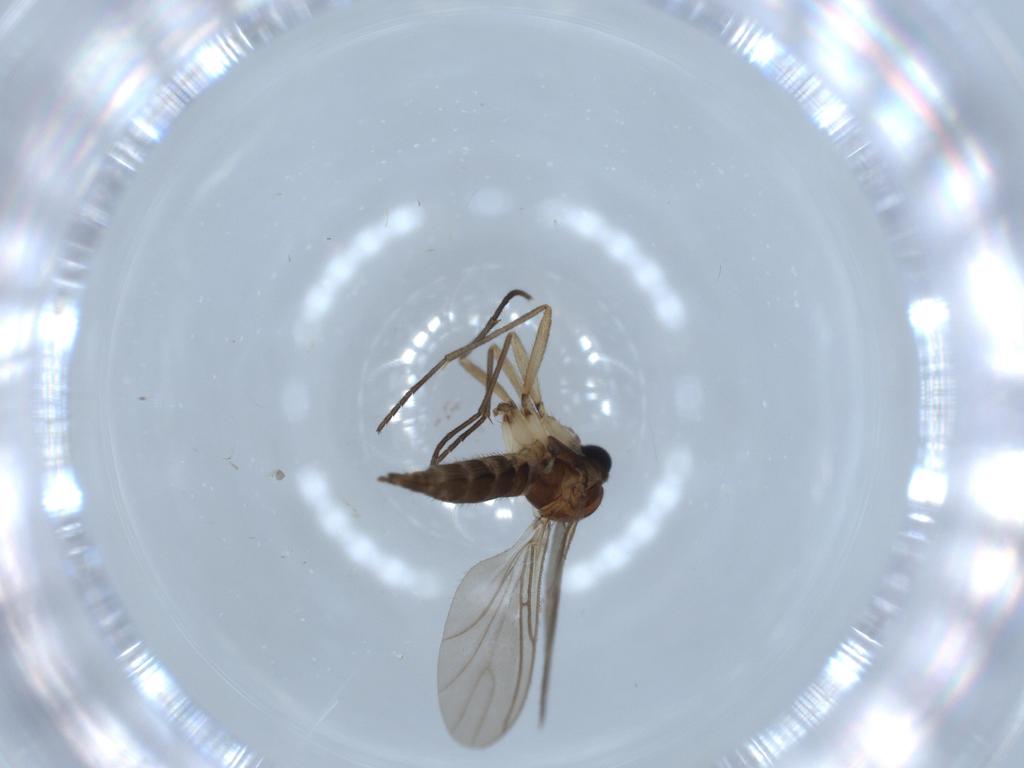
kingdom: Animalia
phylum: Arthropoda
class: Insecta
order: Diptera
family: Sciaridae
